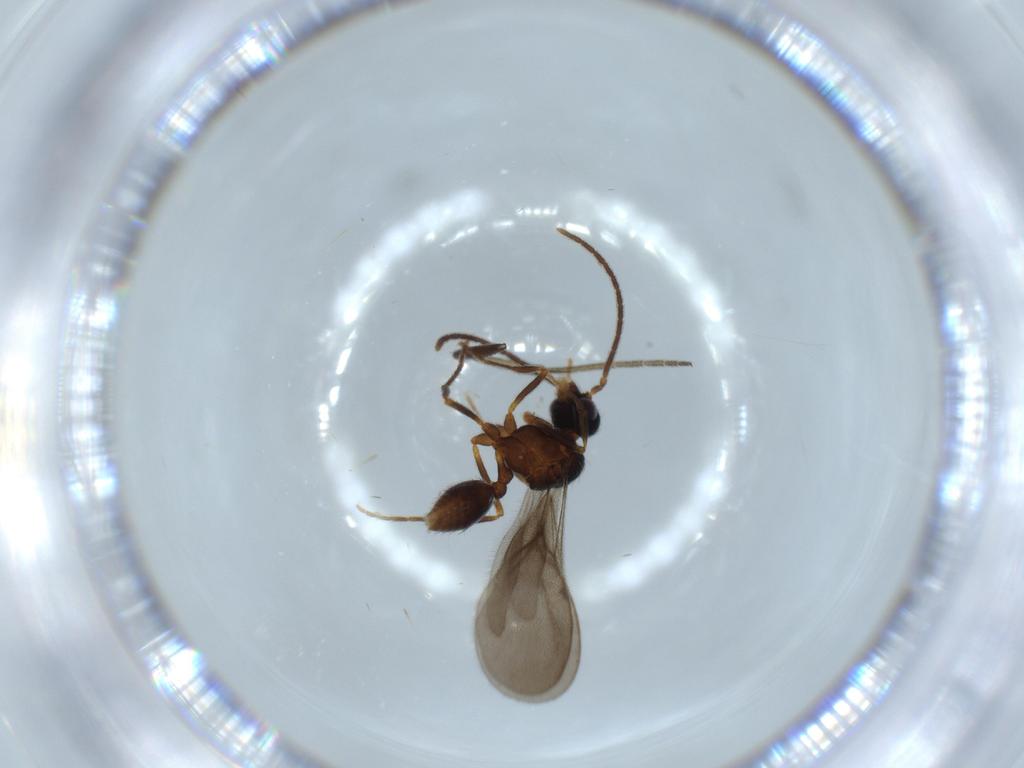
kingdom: Animalia
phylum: Arthropoda
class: Insecta
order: Hymenoptera
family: Formicidae
